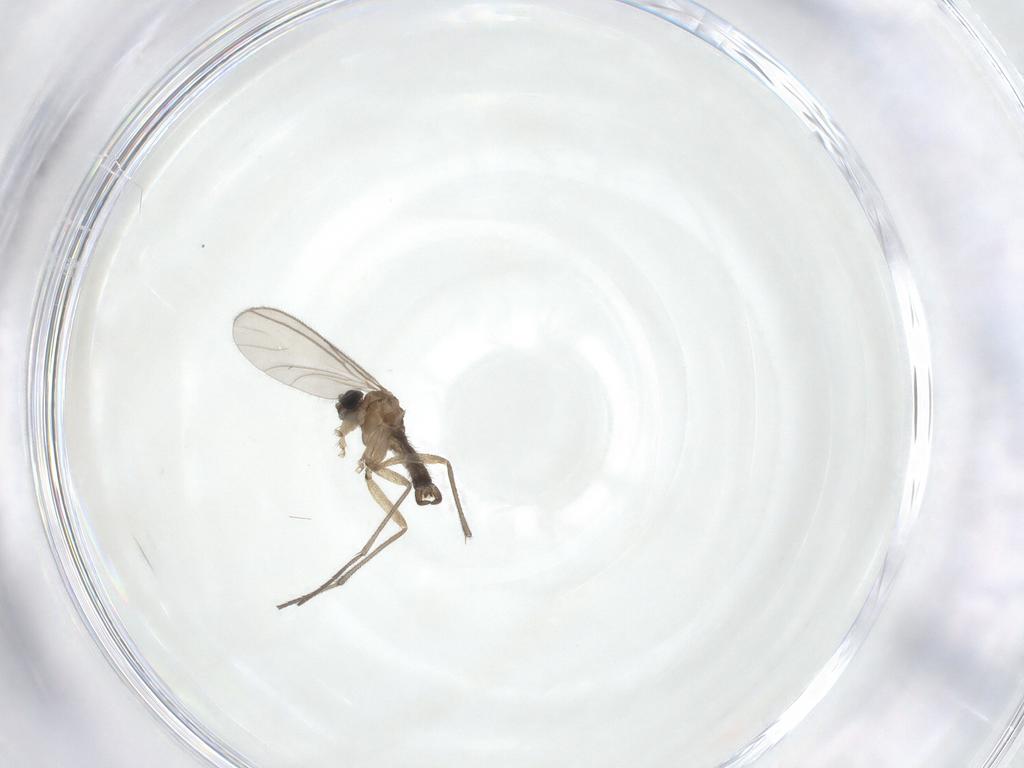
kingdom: Animalia
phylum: Arthropoda
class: Insecta
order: Diptera
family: Sciaridae
